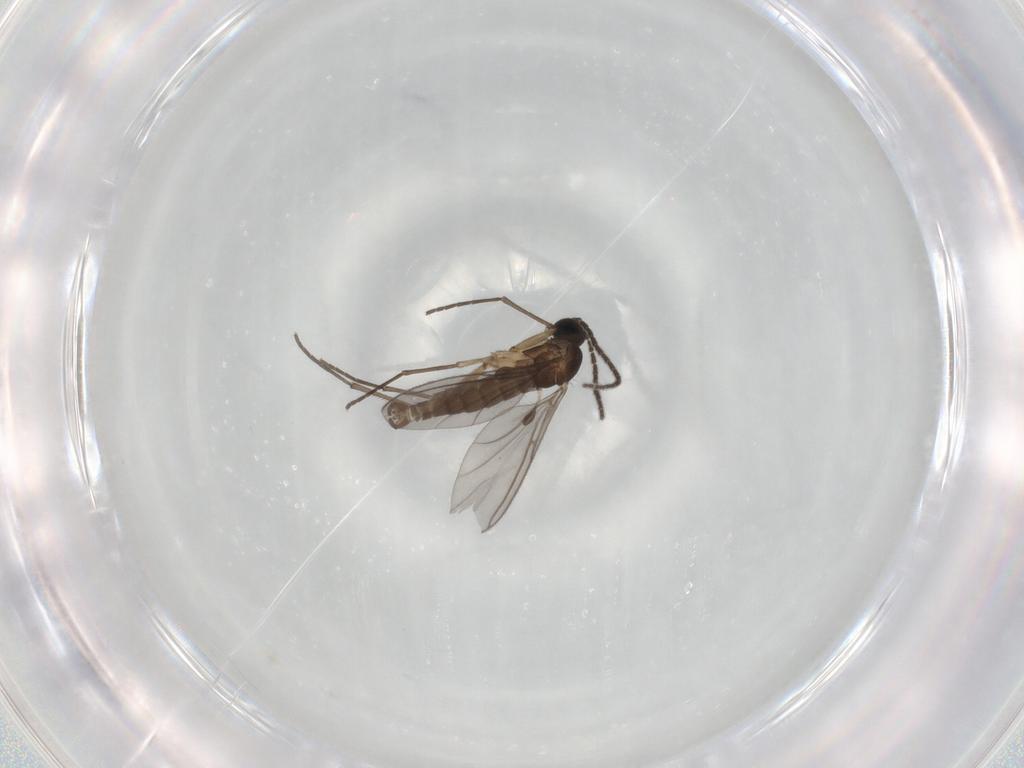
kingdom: Animalia
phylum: Arthropoda
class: Insecta
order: Diptera
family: Sciaridae
